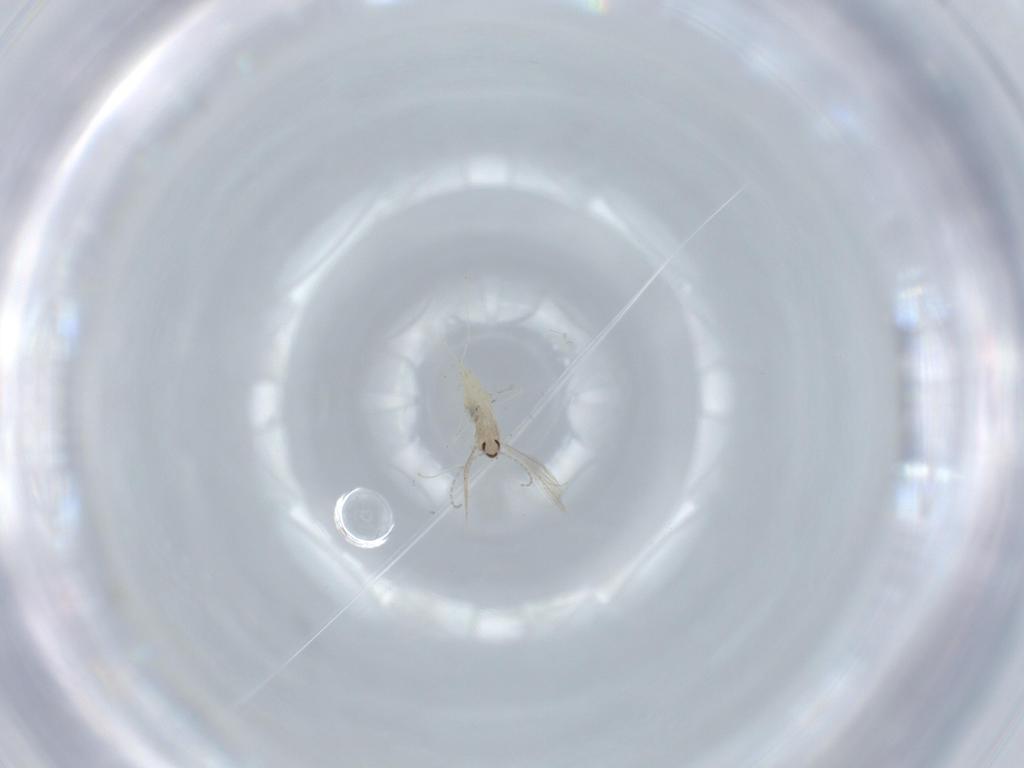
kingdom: Animalia
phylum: Arthropoda
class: Insecta
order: Diptera
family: Cecidomyiidae
